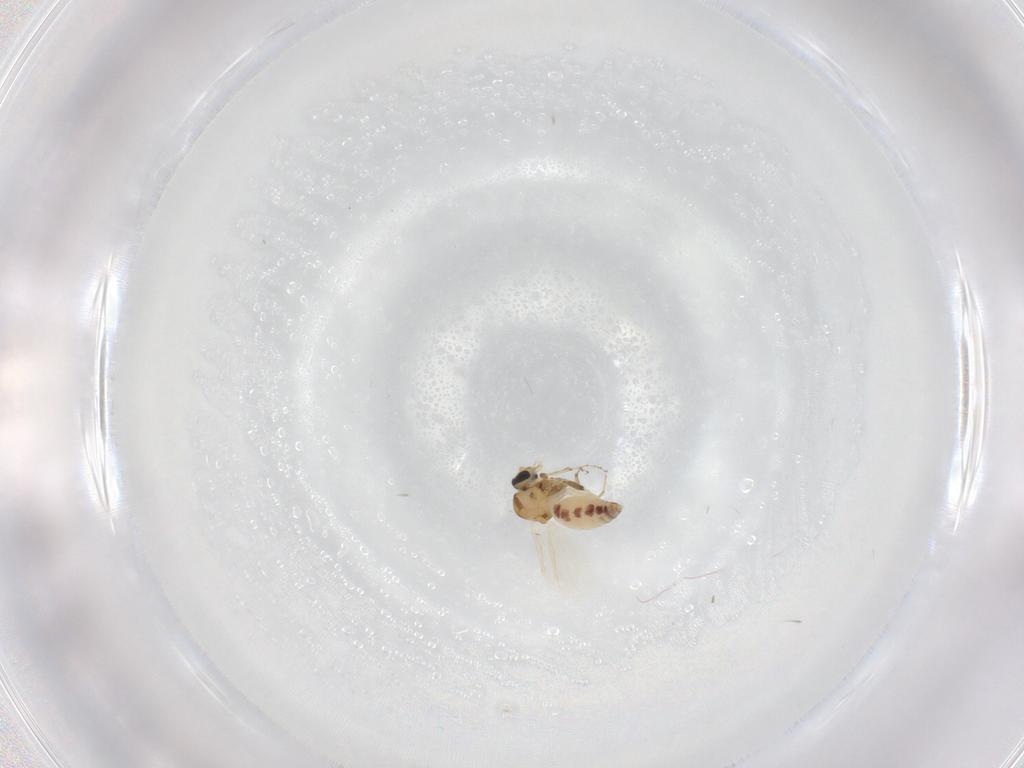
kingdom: Animalia
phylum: Arthropoda
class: Insecta
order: Diptera
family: Ceratopogonidae
